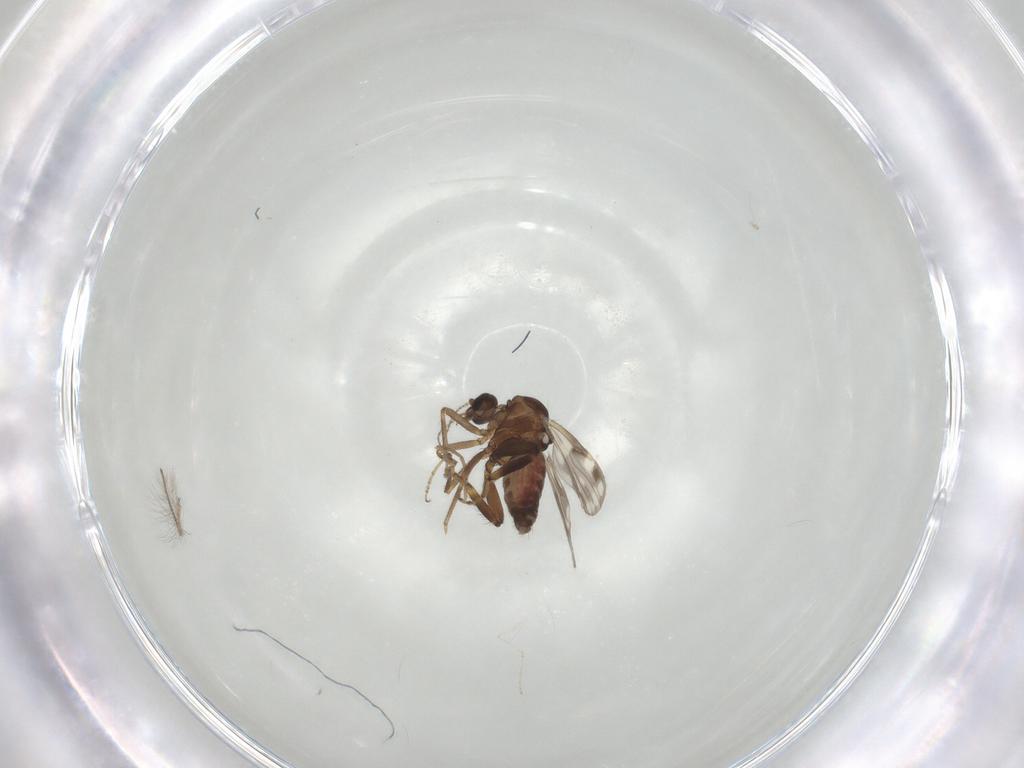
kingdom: Animalia
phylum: Arthropoda
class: Insecta
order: Diptera
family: Ceratopogonidae
